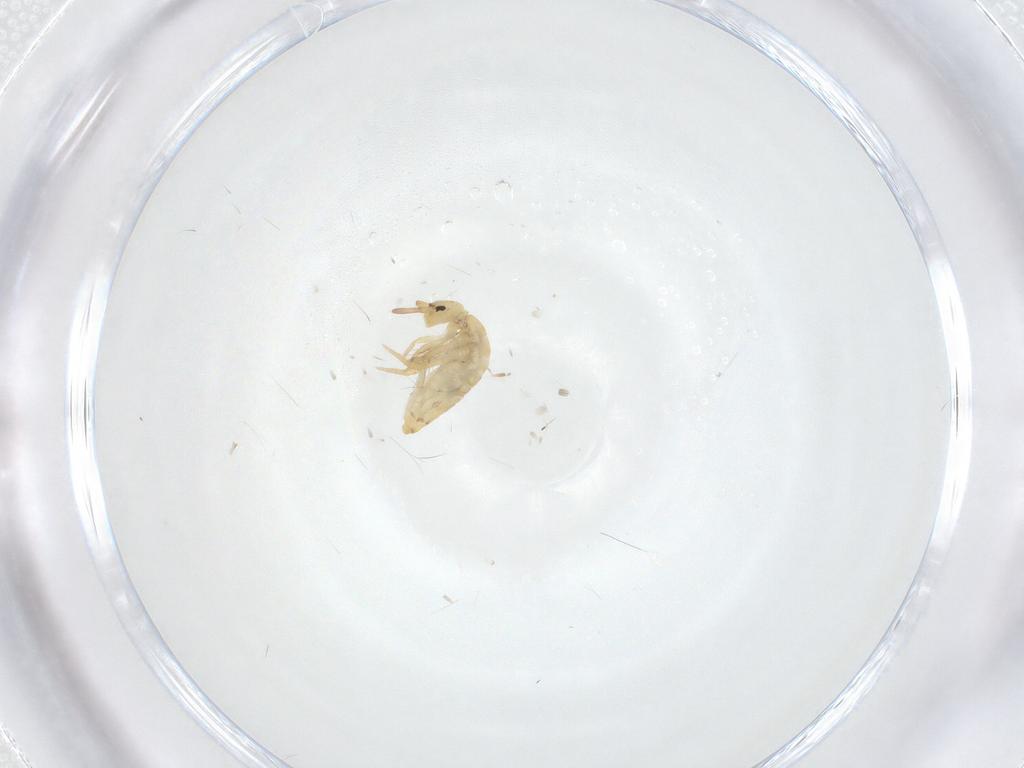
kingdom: Animalia
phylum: Arthropoda
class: Collembola
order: Entomobryomorpha
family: Entomobryidae
